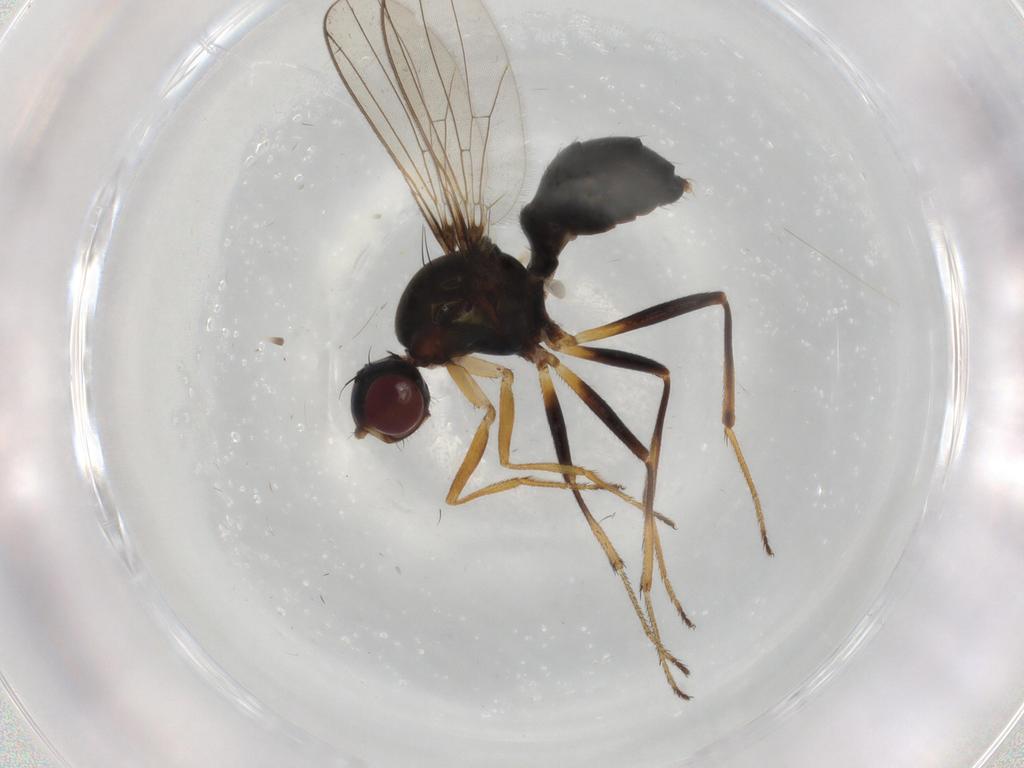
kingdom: Animalia
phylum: Arthropoda
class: Insecta
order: Diptera
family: Sepsidae
